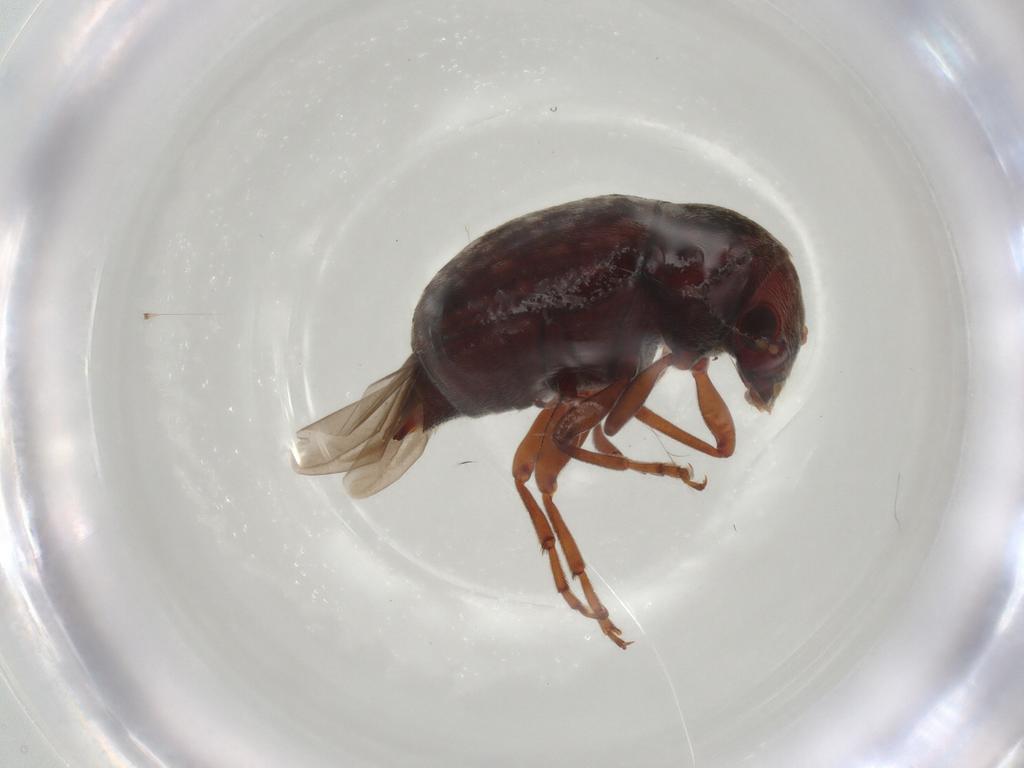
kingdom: Animalia
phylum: Arthropoda
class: Insecta
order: Coleoptera
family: Anthribidae
